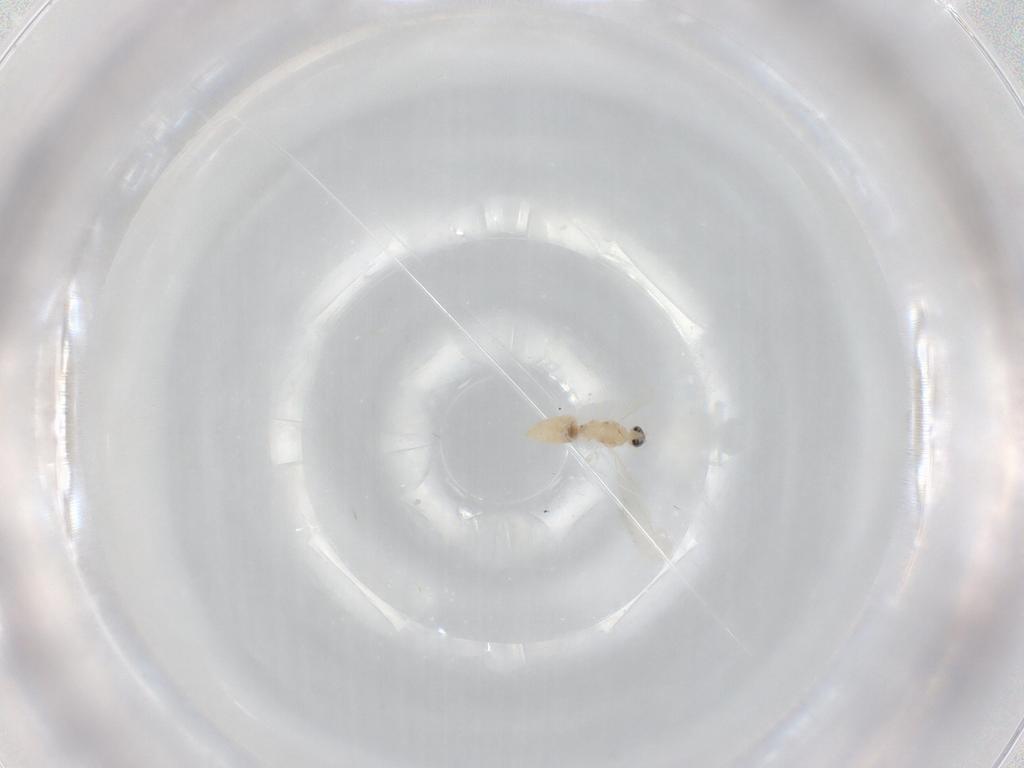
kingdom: Animalia
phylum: Arthropoda
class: Insecta
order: Diptera
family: Cecidomyiidae
